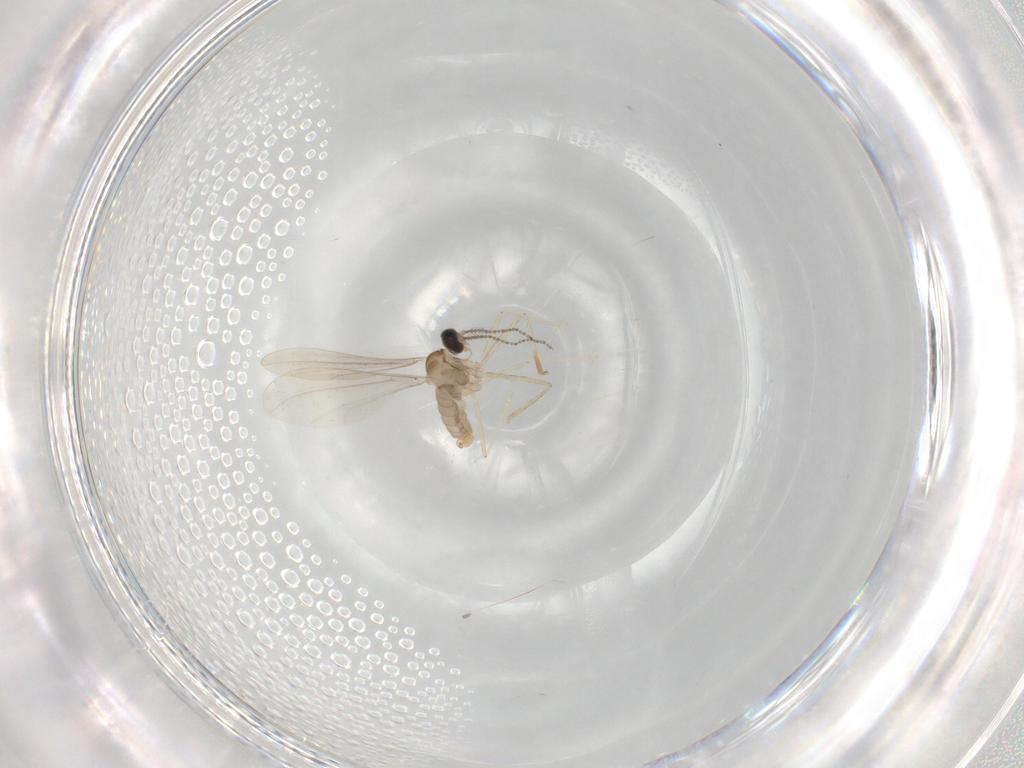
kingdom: Animalia
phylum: Arthropoda
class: Insecta
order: Diptera
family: Cecidomyiidae
